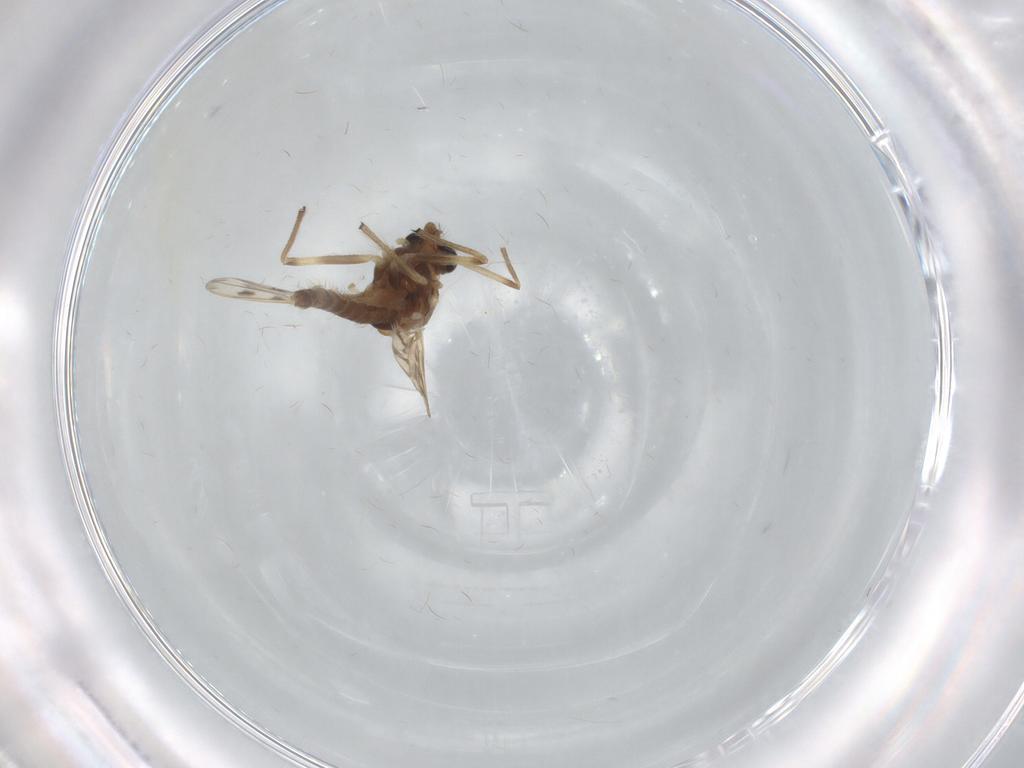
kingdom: Animalia
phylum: Arthropoda
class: Insecta
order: Diptera
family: Chironomidae
